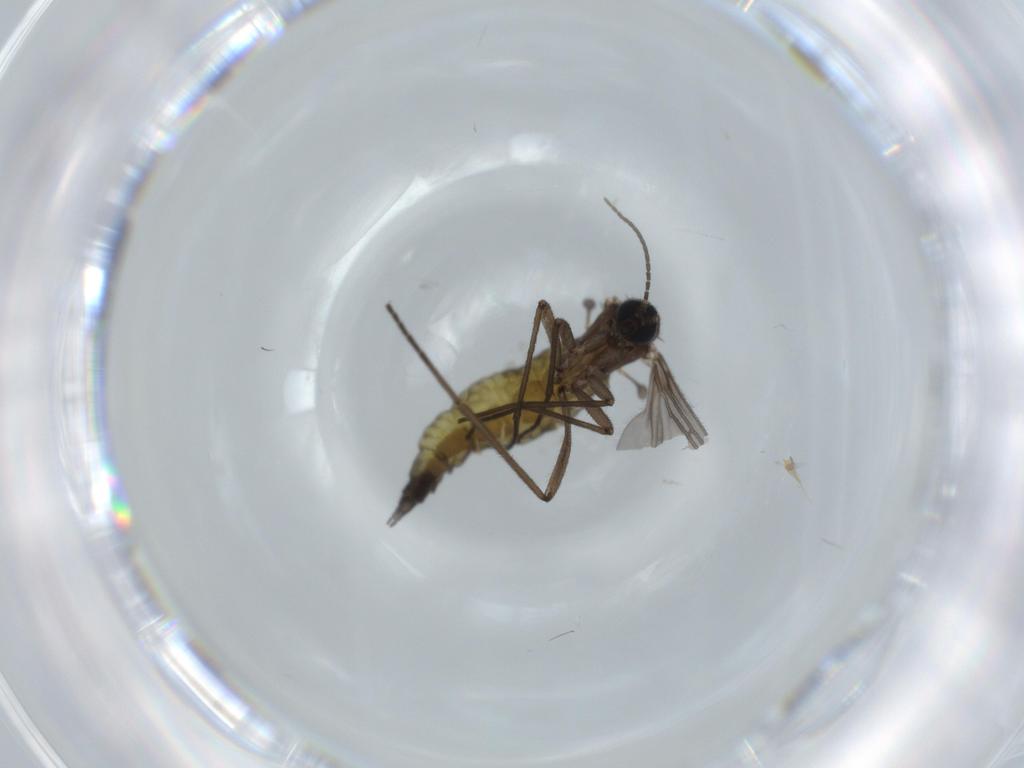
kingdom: Animalia
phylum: Arthropoda
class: Insecta
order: Diptera
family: Sciaridae
